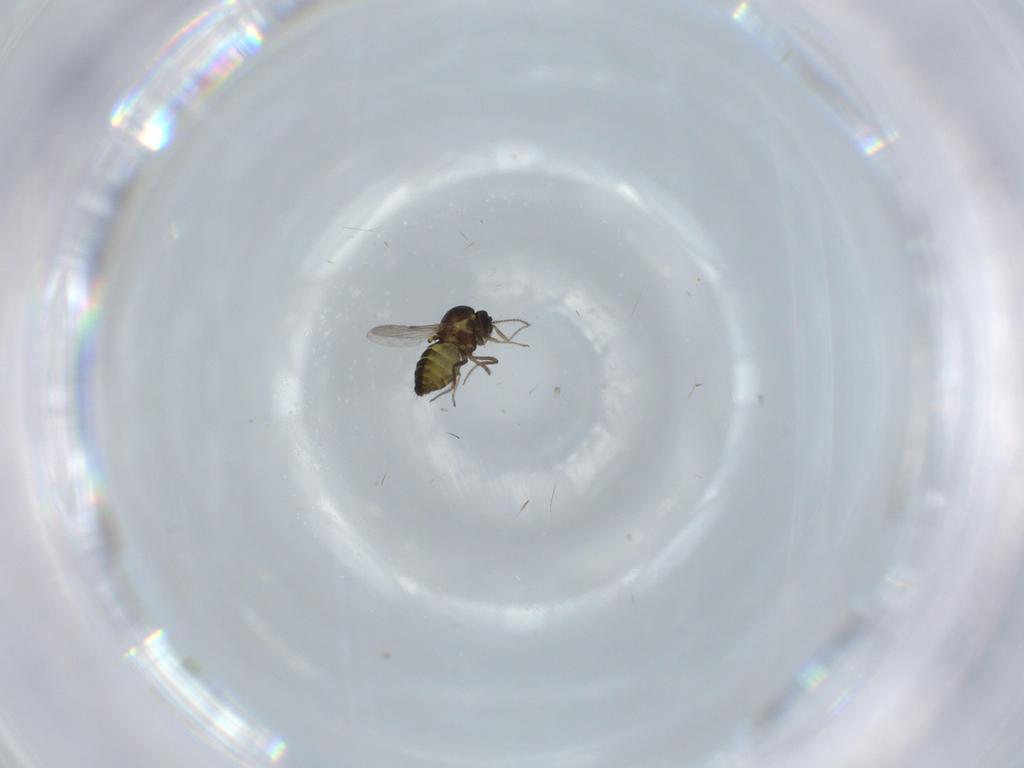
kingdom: Animalia
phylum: Arthropoda
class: Insecta
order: Diptera
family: Ceratopogonidae
